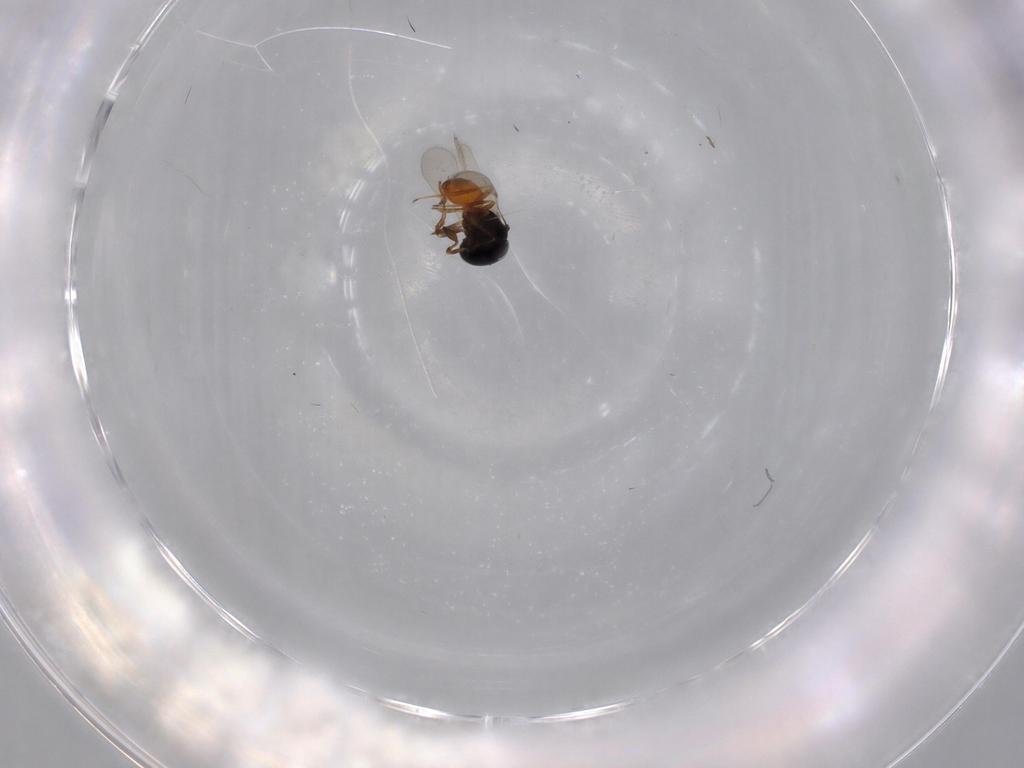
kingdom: Animalia
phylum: Arthropoda
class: Insecta
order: Hymenoptera
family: Scelionidae
